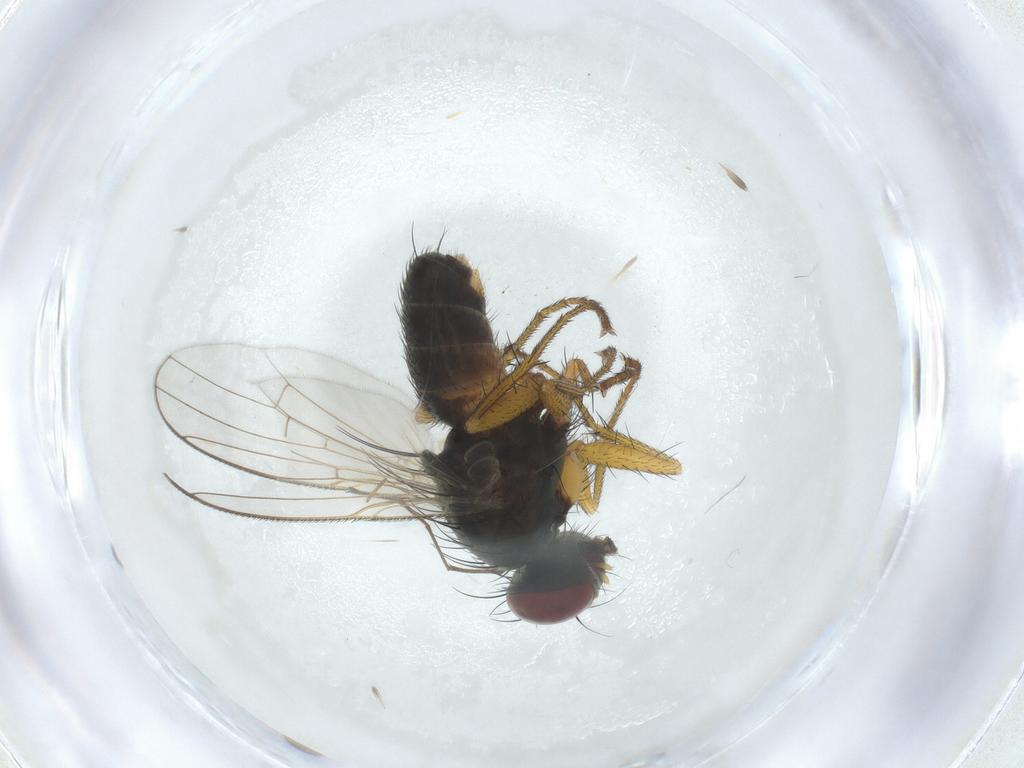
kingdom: Animalia
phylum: Arthropoda
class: Insecta
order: Diptera
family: Muscidae
